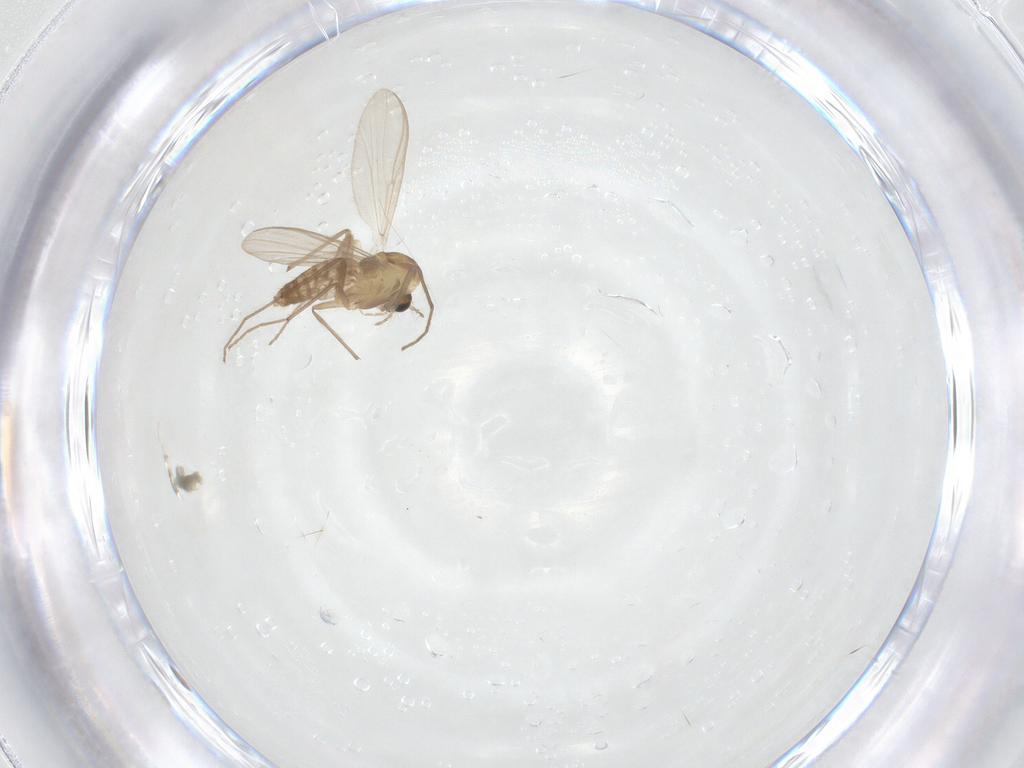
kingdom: Animalia
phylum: Arthropoda
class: Insecta
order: Diptera
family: Chironomidae
